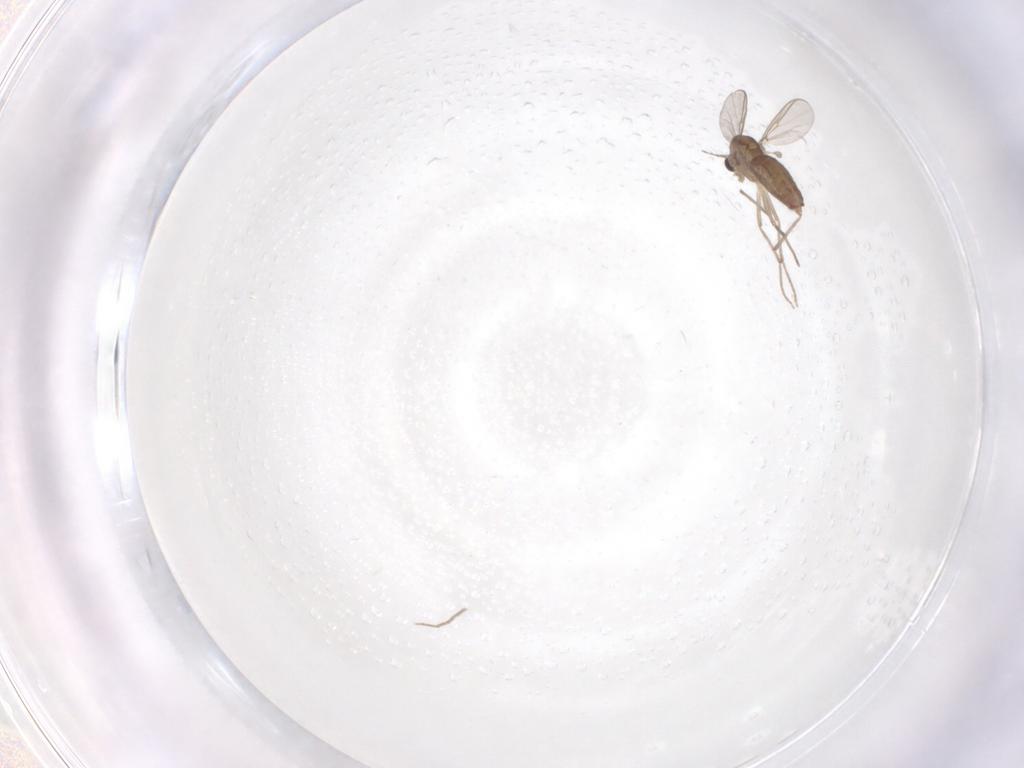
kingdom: Animalia
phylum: Arthropoda
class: Insecta
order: Diptera
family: Chironomidae
